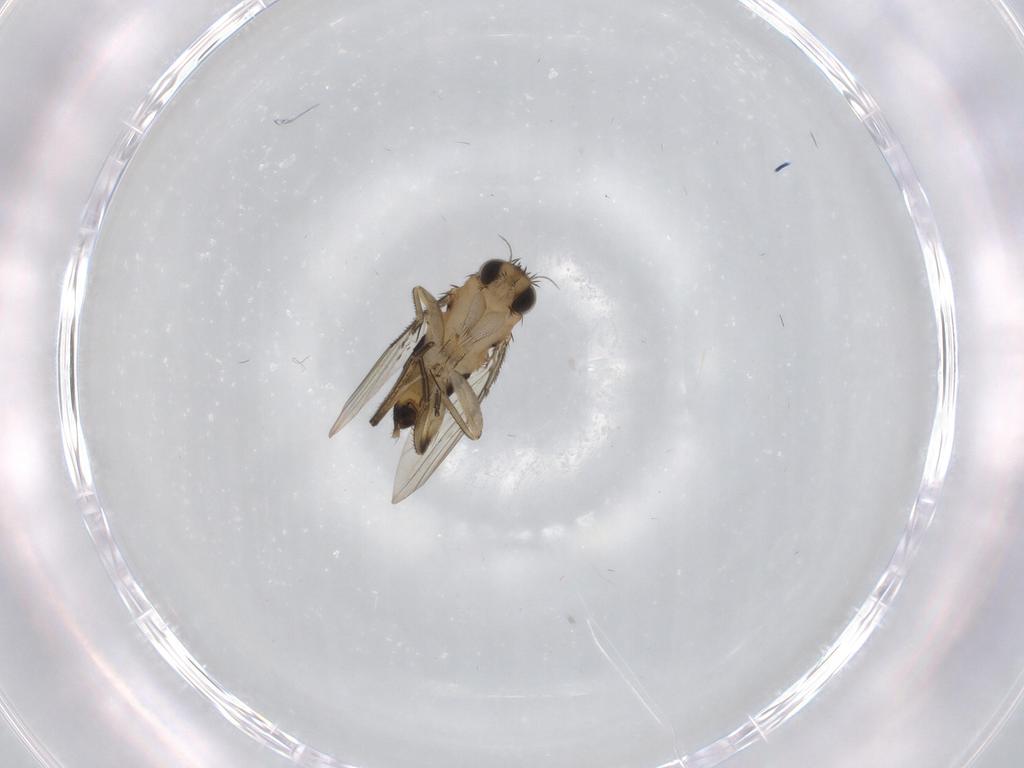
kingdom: Animalia
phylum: Arthropoda
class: Insecta
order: Diptera
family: Phoridae
